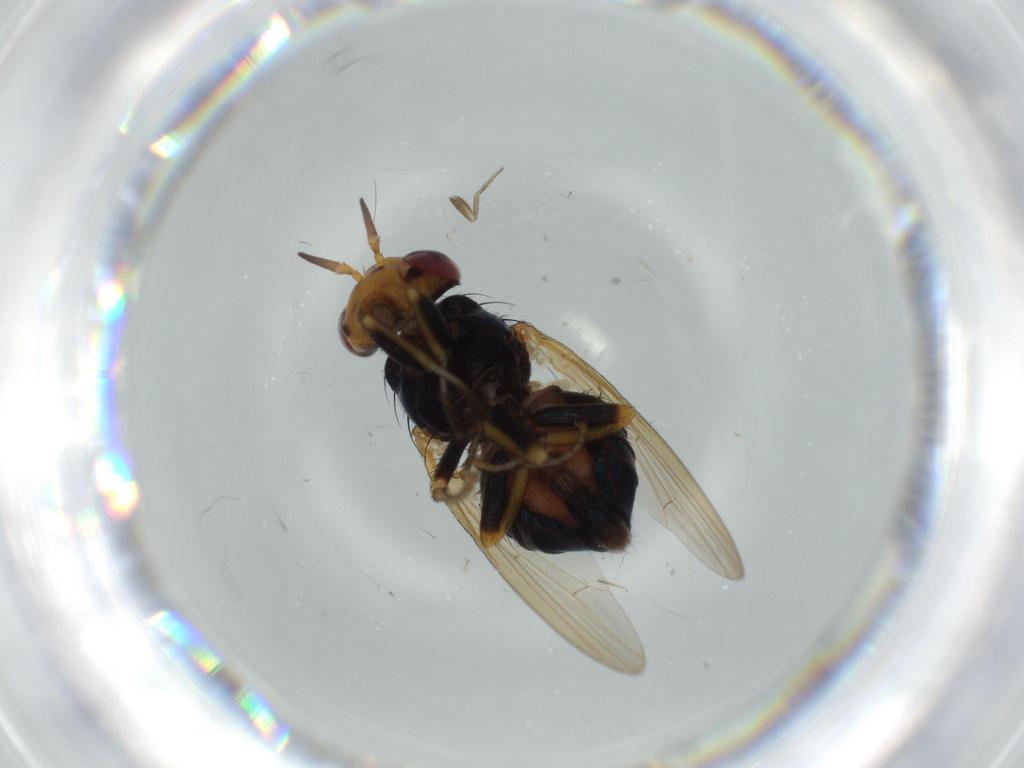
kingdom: Animalia
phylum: Arthropoda
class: Insecta
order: Diptera
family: Phoridae
